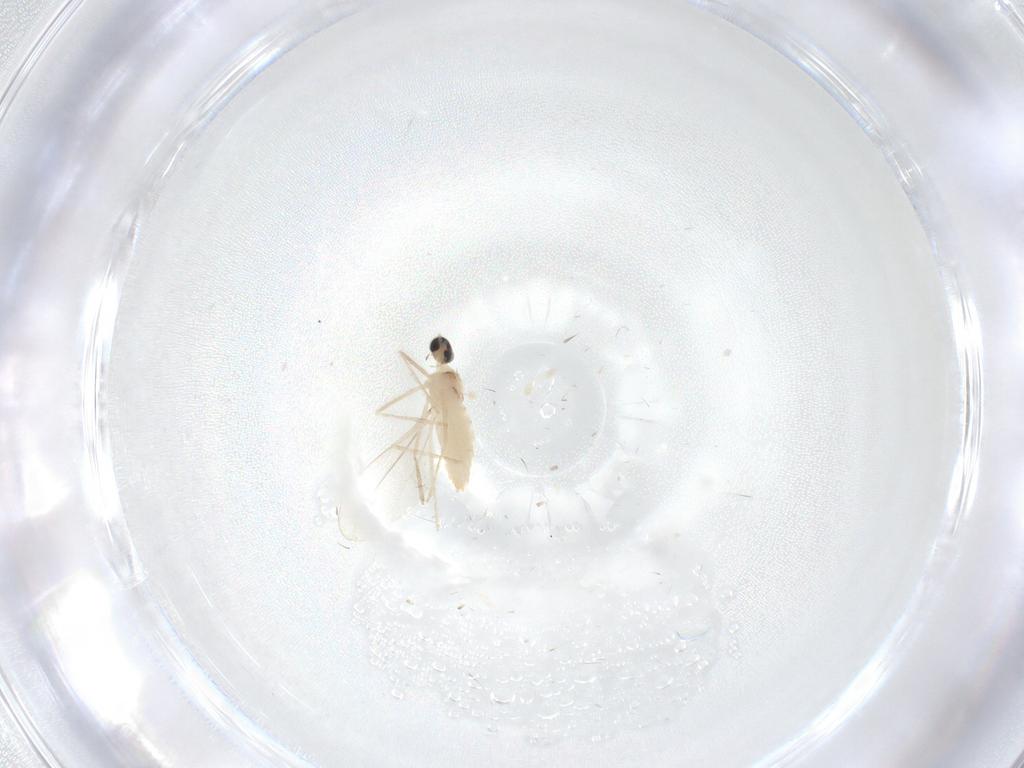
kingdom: Animalia
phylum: Arthropoda
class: Insecta
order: Diptera
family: Cecidomyiidae
